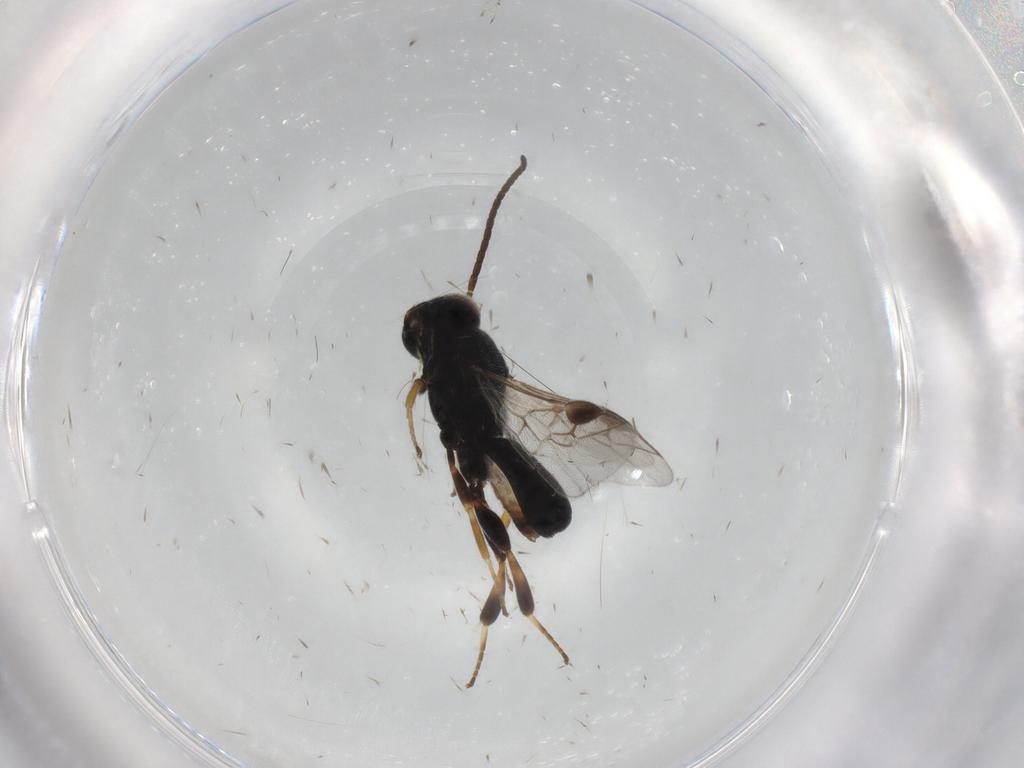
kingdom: Animalia
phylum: Arthropoda
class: Insecta
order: Hymenoptera
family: Braconidae
